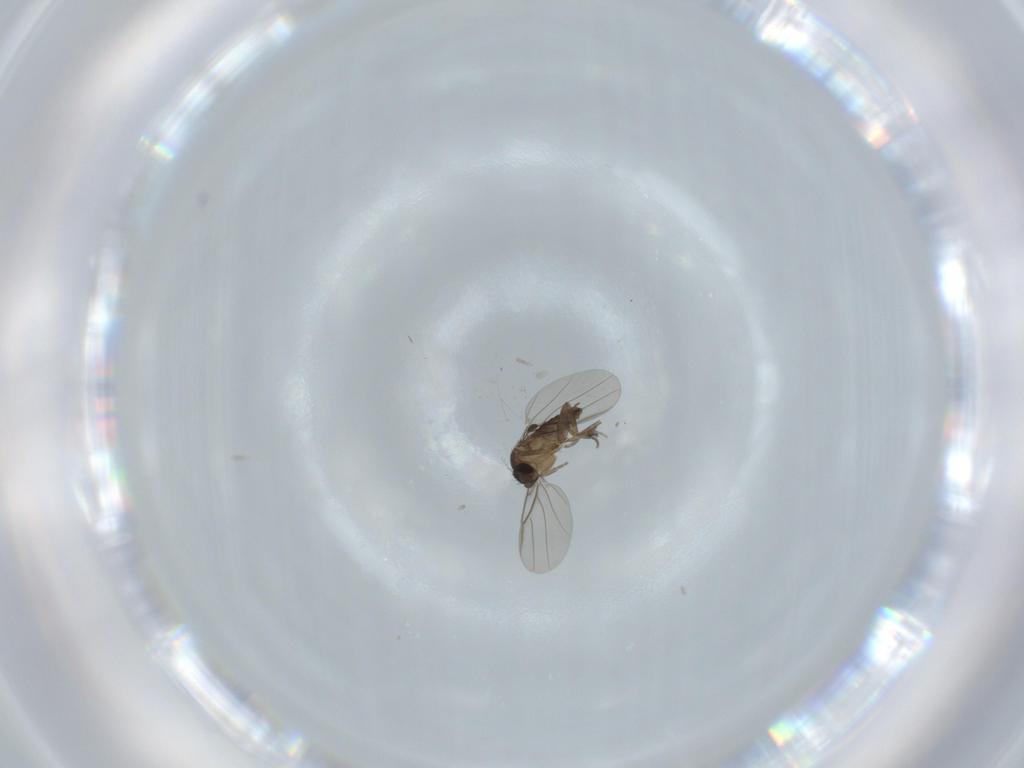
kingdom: Animalia
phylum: Arthropoda
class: Insecta
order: Diptera
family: Phoridae
